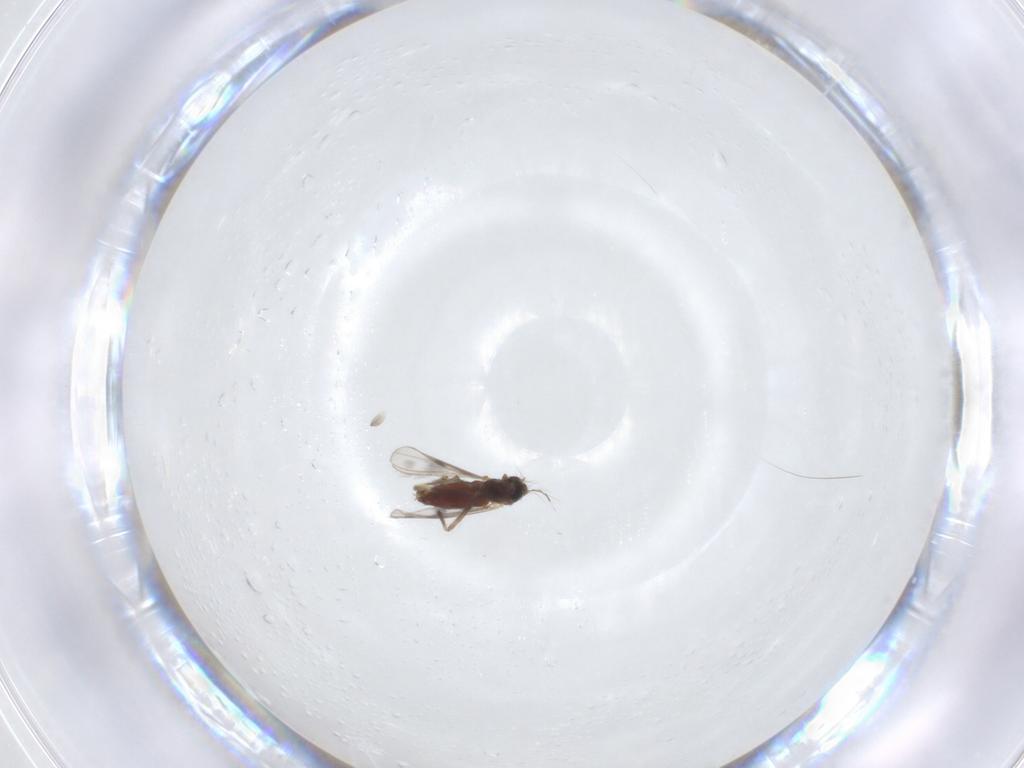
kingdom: Animalia
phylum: Arthropoda
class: Insecta
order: Diptera
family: Chironomidae
